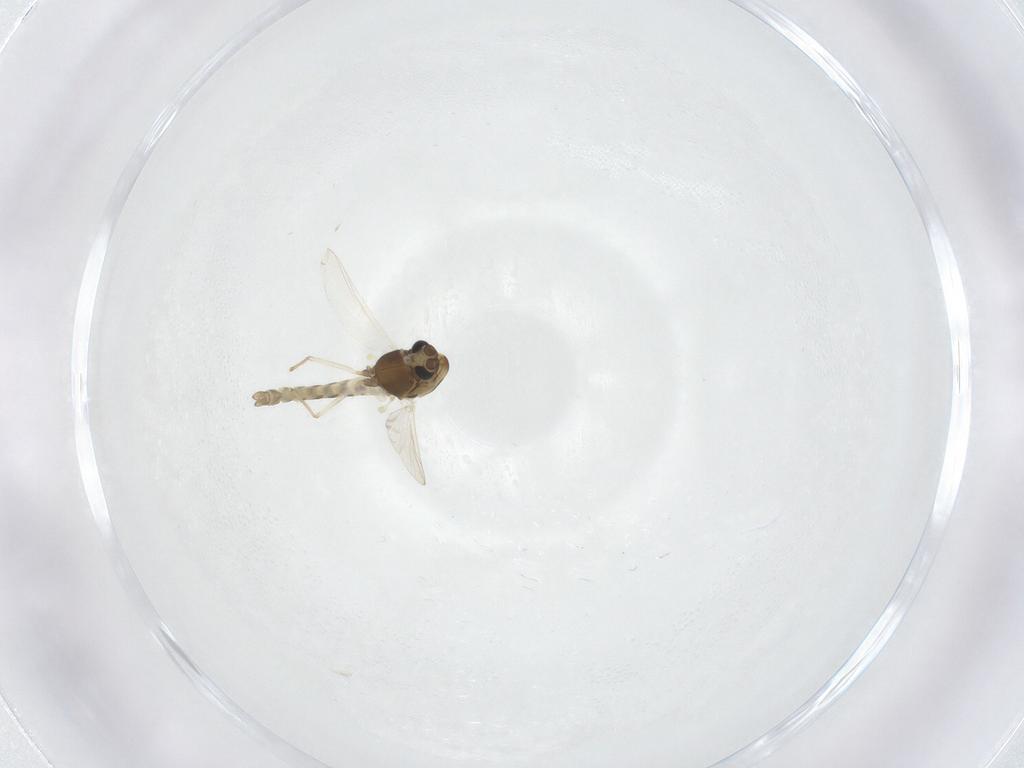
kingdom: Animalia
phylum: Arthropoda
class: Insecta
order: Diptera
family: Chironomidae
